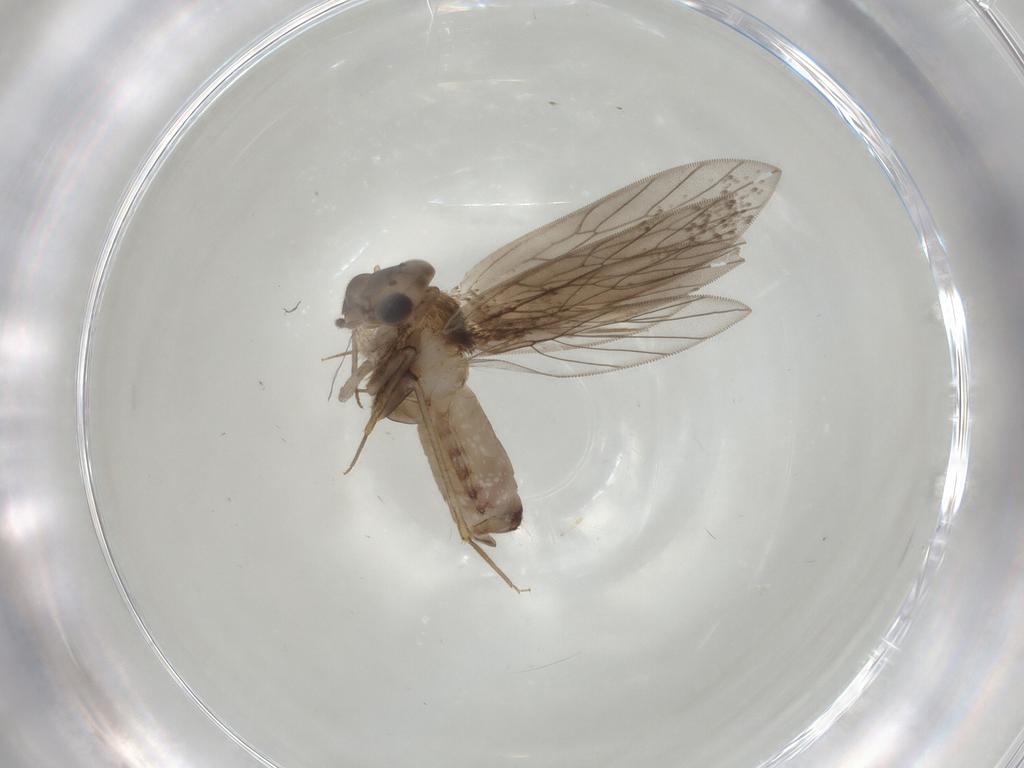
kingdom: Animalia
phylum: Arthropoda
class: Insecta
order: Psocodea
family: Lepidopsocidae
